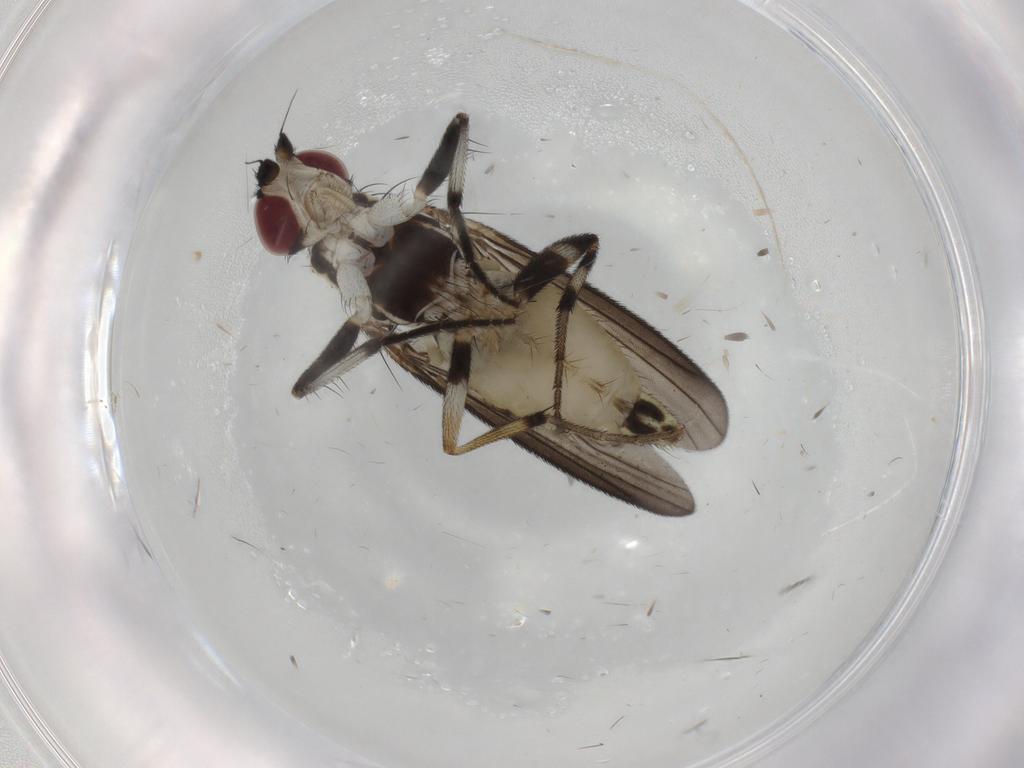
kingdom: Animalia
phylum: Arthropoda
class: Insecta
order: Diptera
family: Pseudopomyzidae
